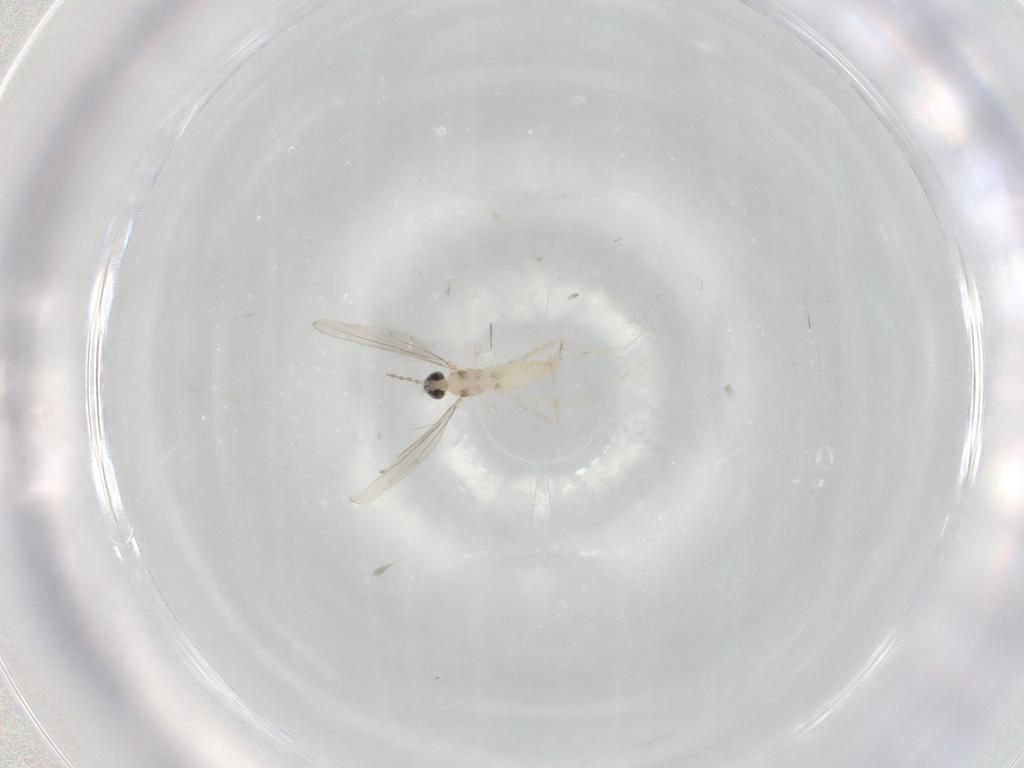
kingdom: Animalia
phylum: Arthropoda
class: Insecta
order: Diptera
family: Cecidomyiidae
